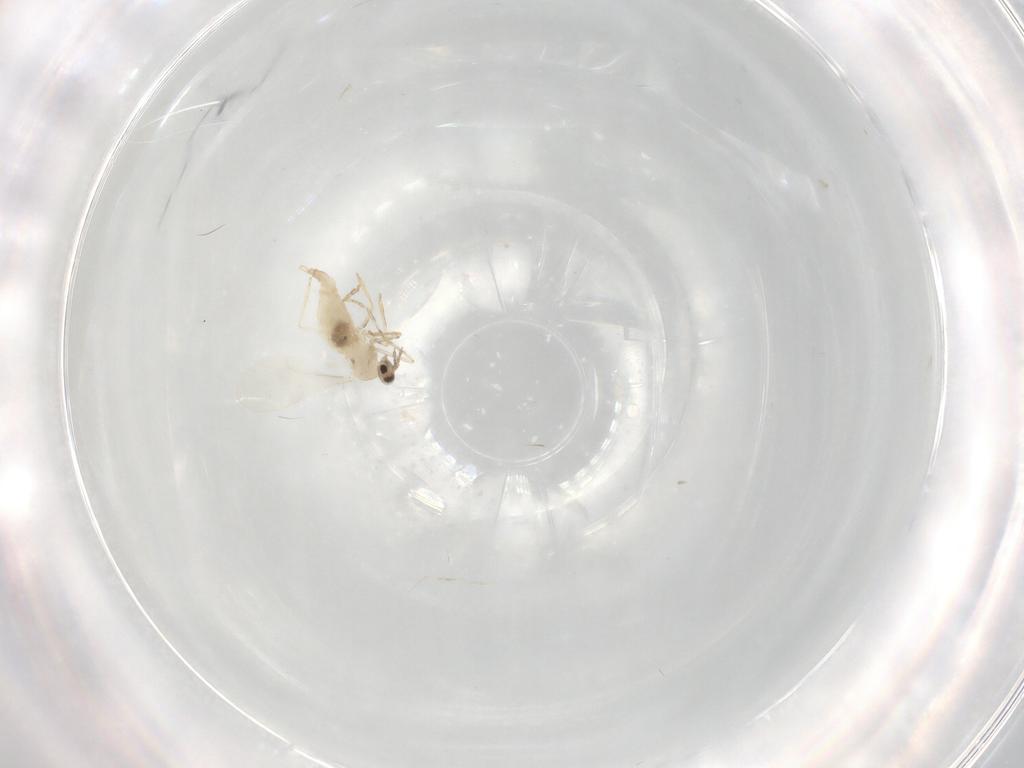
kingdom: Animalia
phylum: Arthropoda
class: Insecta
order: Diptera
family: Cecidomyiidae
